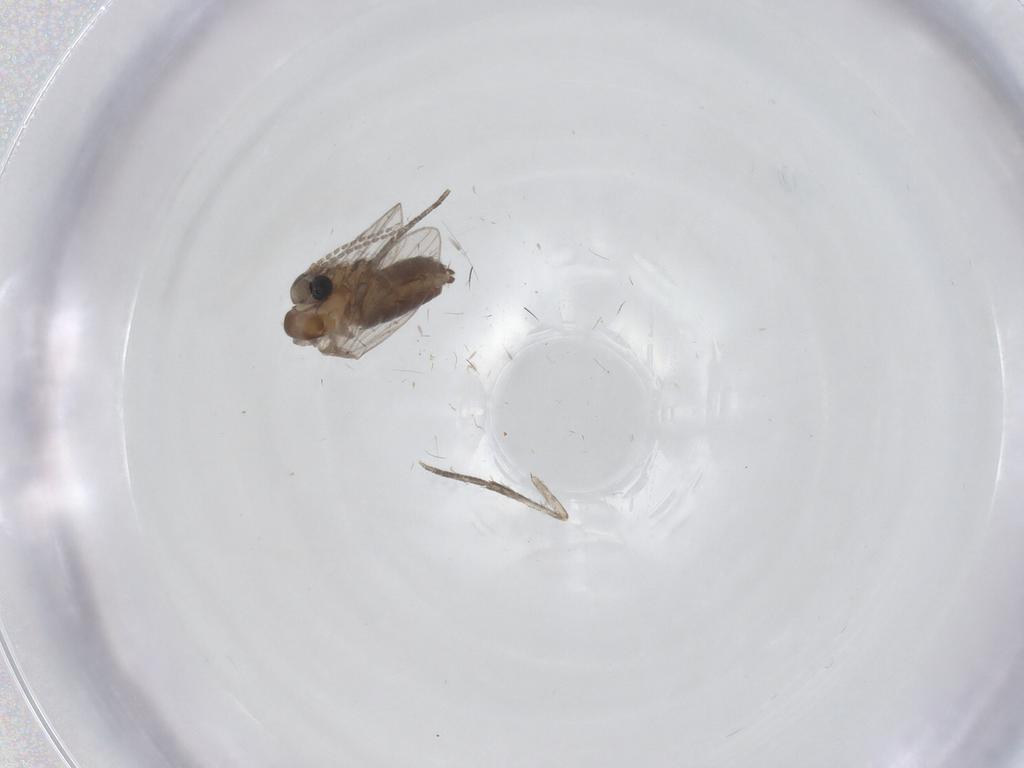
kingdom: Animalia
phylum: Arthropoda
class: Insecta
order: Diptera
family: Psychodidae
